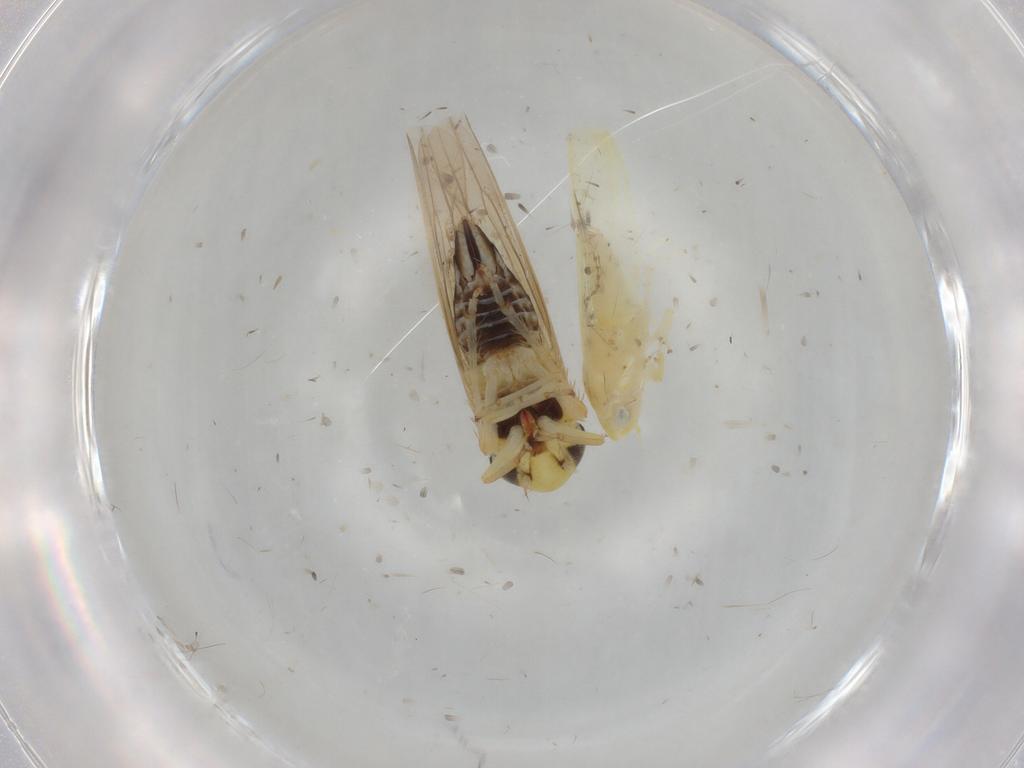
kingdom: Animalia
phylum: Arthropoda
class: Insecta
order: Hemiptera
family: Cicadellidae
